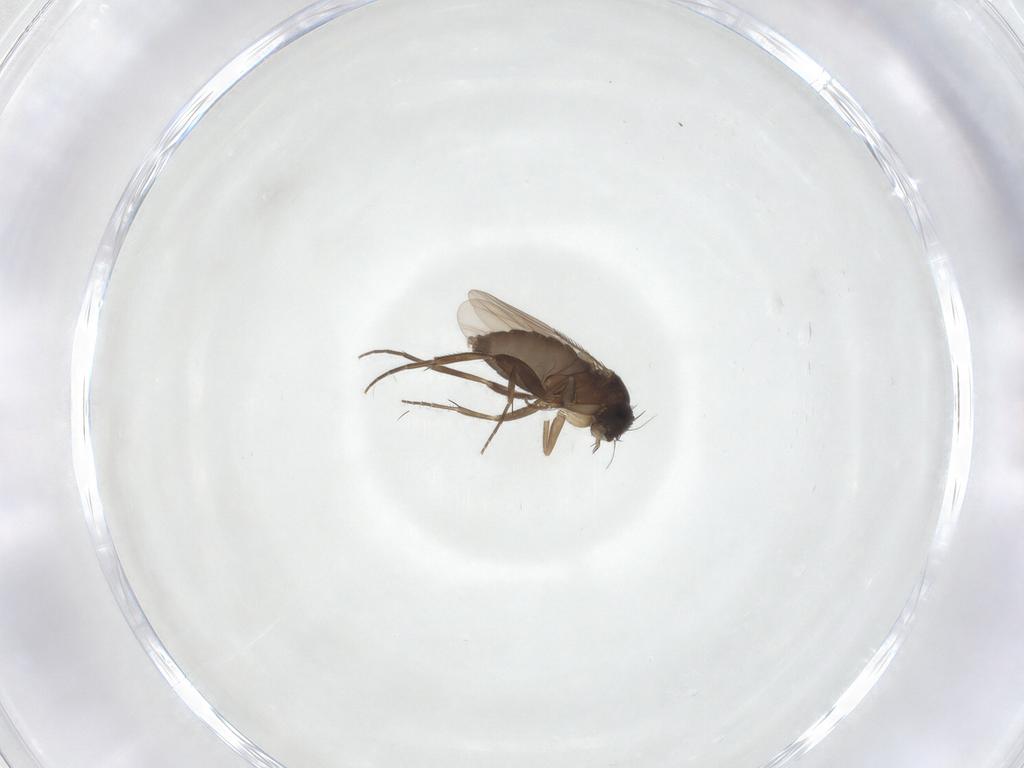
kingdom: Animalia
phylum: Arthropoda
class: Insecta
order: Diptera
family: Phoridae
